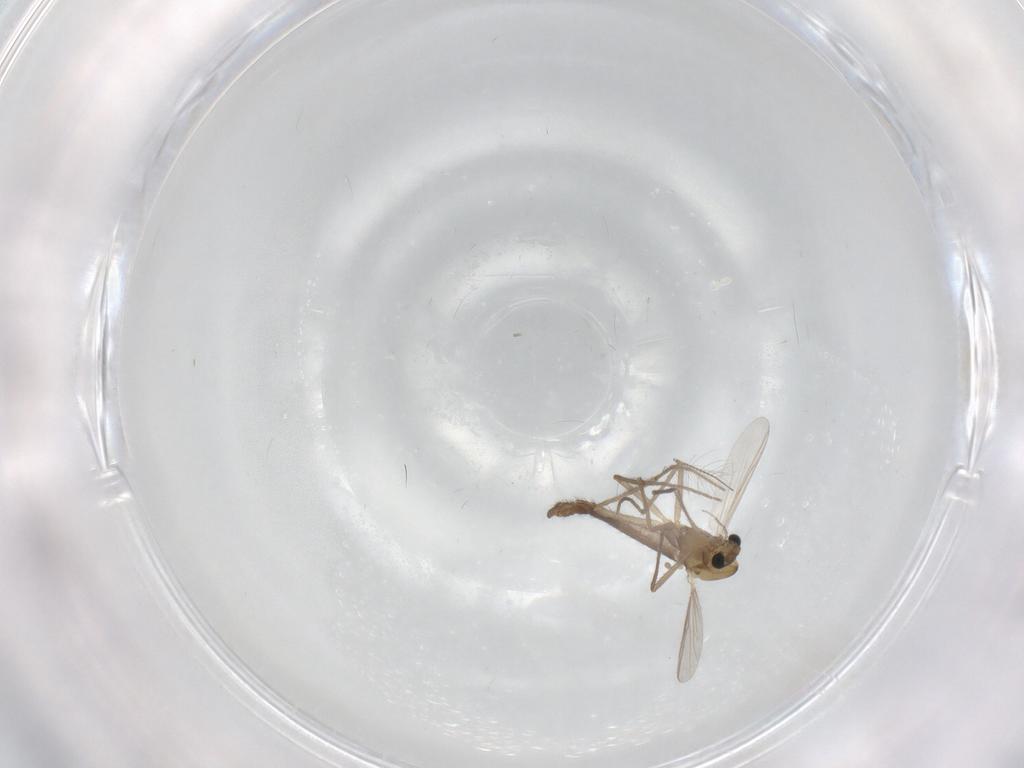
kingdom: Animalia
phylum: Arthropoda
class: Insecta
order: Diptera
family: Chironomidae
